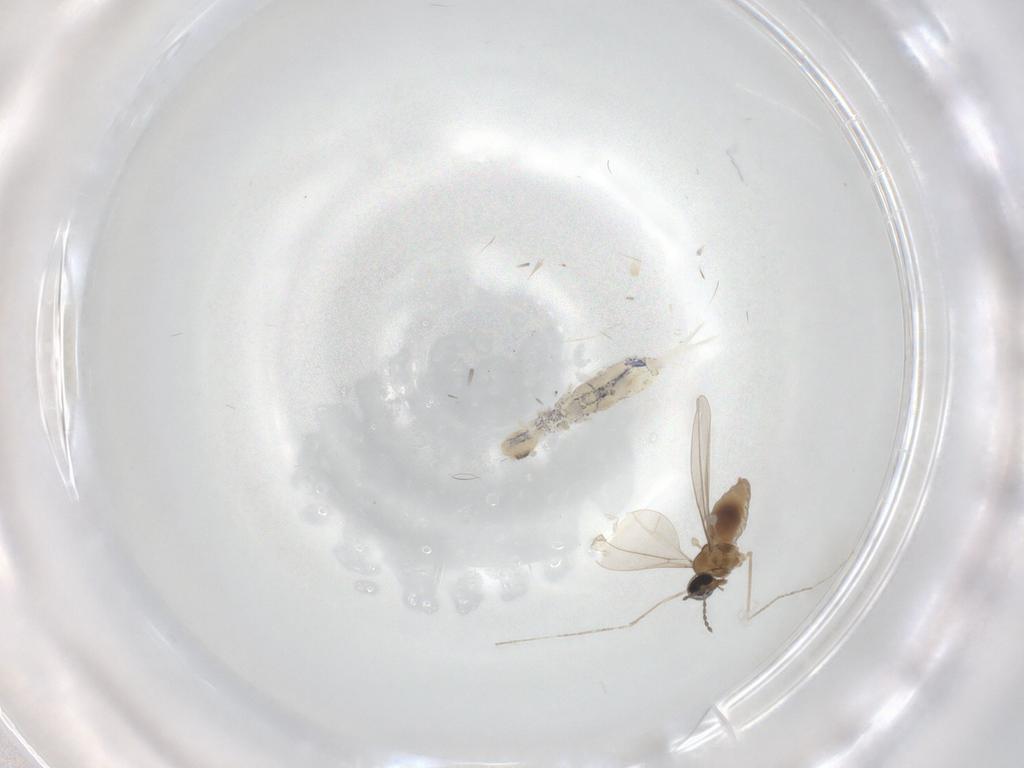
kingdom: Animalia
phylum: Arthropoda
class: Insecta
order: Diptera
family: Cecidomyiidae
